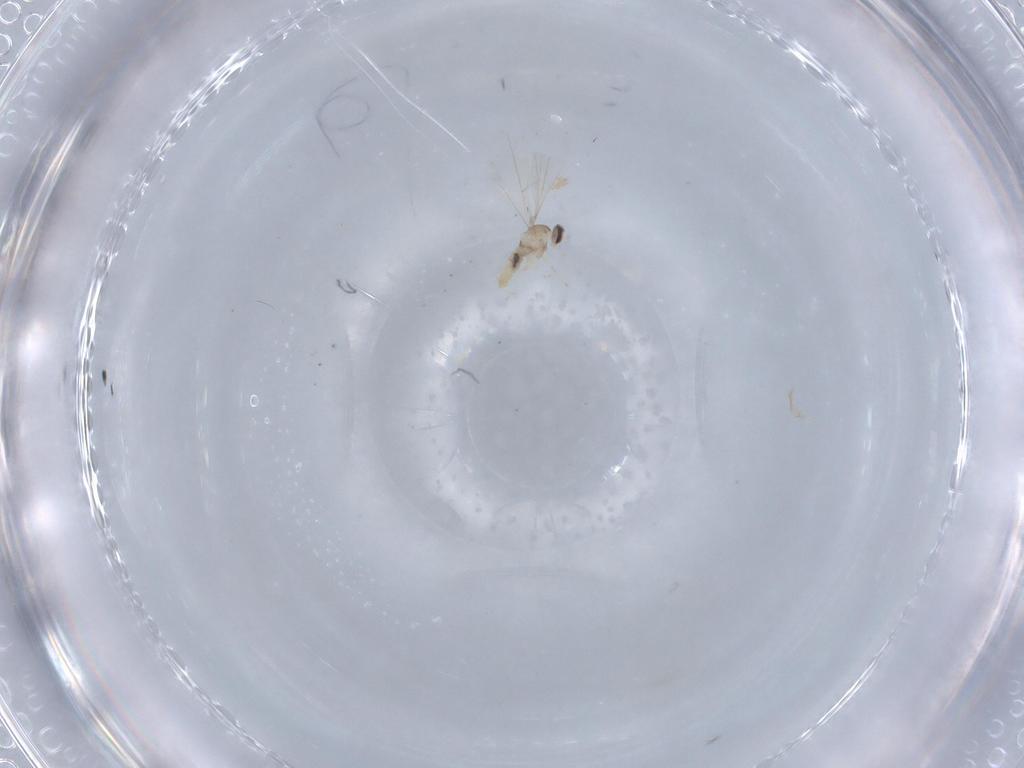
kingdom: Animalia
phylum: Arthropoda
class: Insecta
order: Diptera
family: Cecidomyiidae
